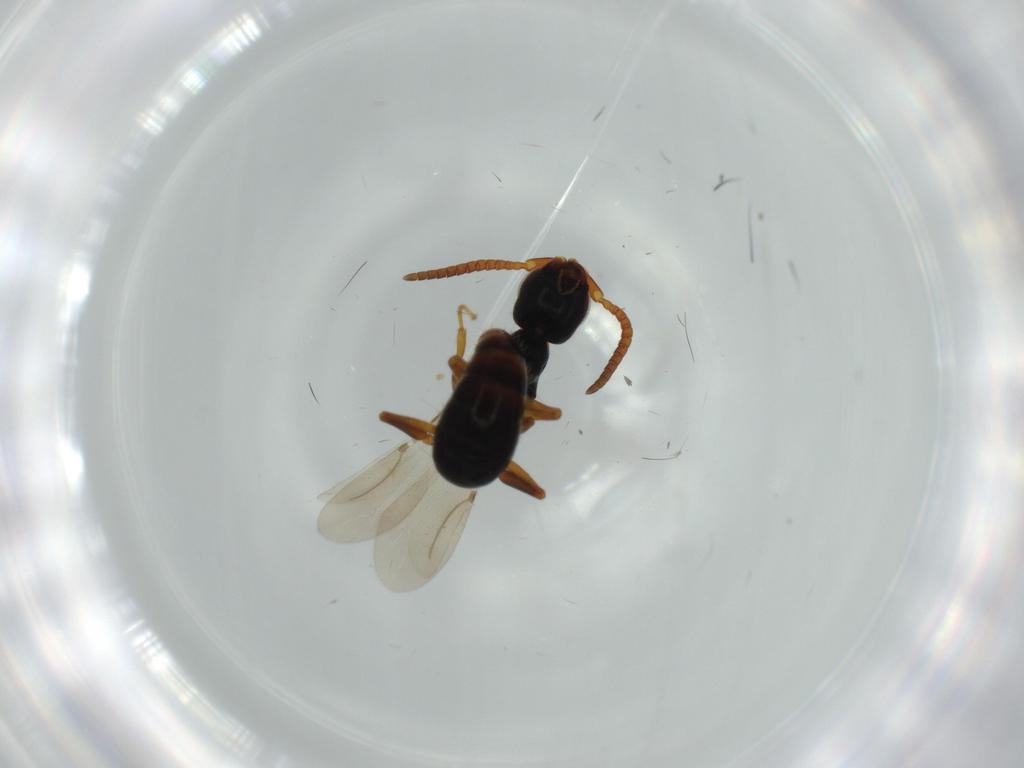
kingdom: Animalia
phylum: Arthropoda
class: Insecta
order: Hymenoptera
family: Bethylidae
